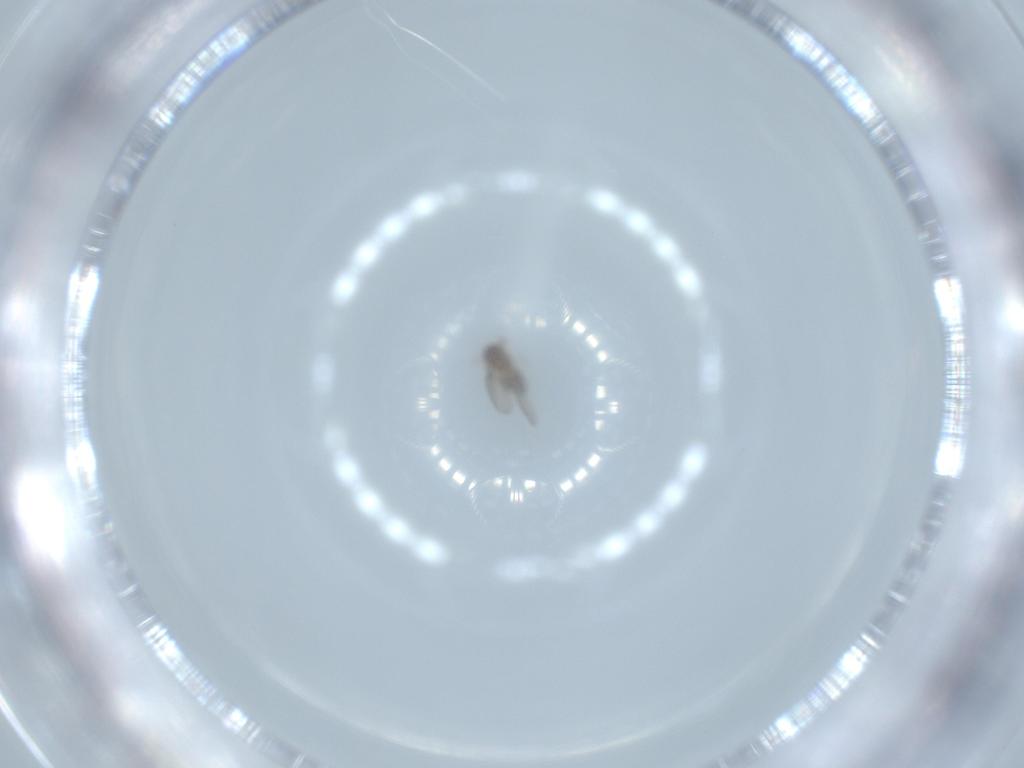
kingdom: Animalia
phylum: Arthropoda
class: Insecta
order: Diptera
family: Cecidomyiidae
